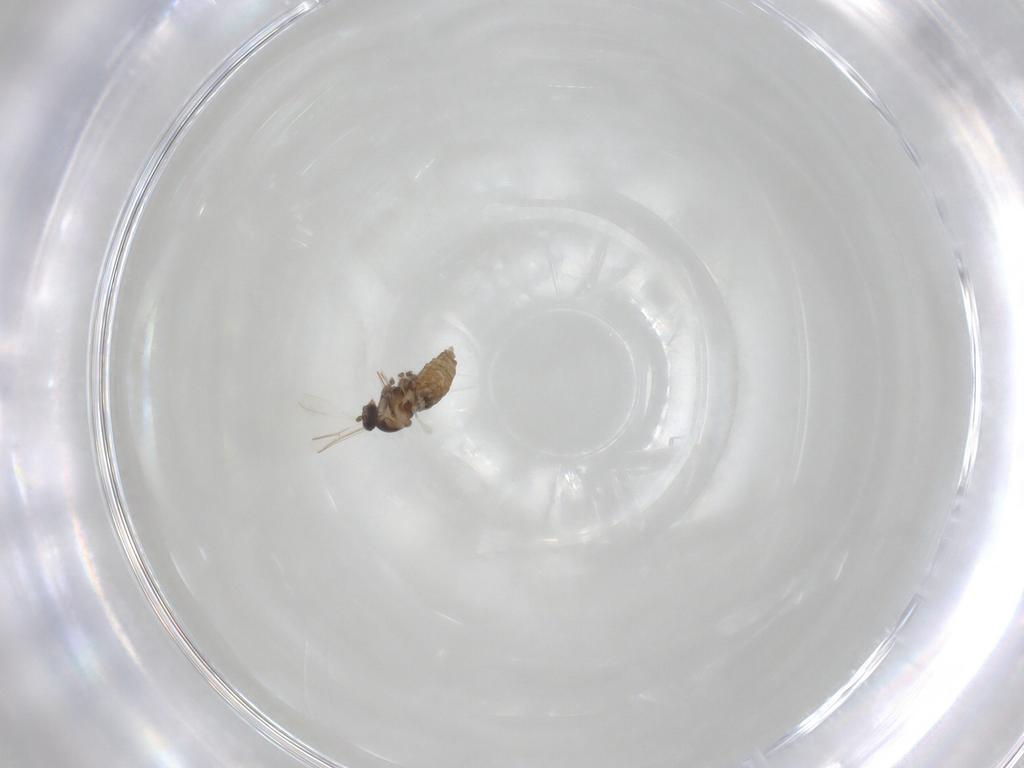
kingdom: Animalia
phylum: Arthropoda
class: Insecta
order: Diptera
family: Cecidomyiidae
